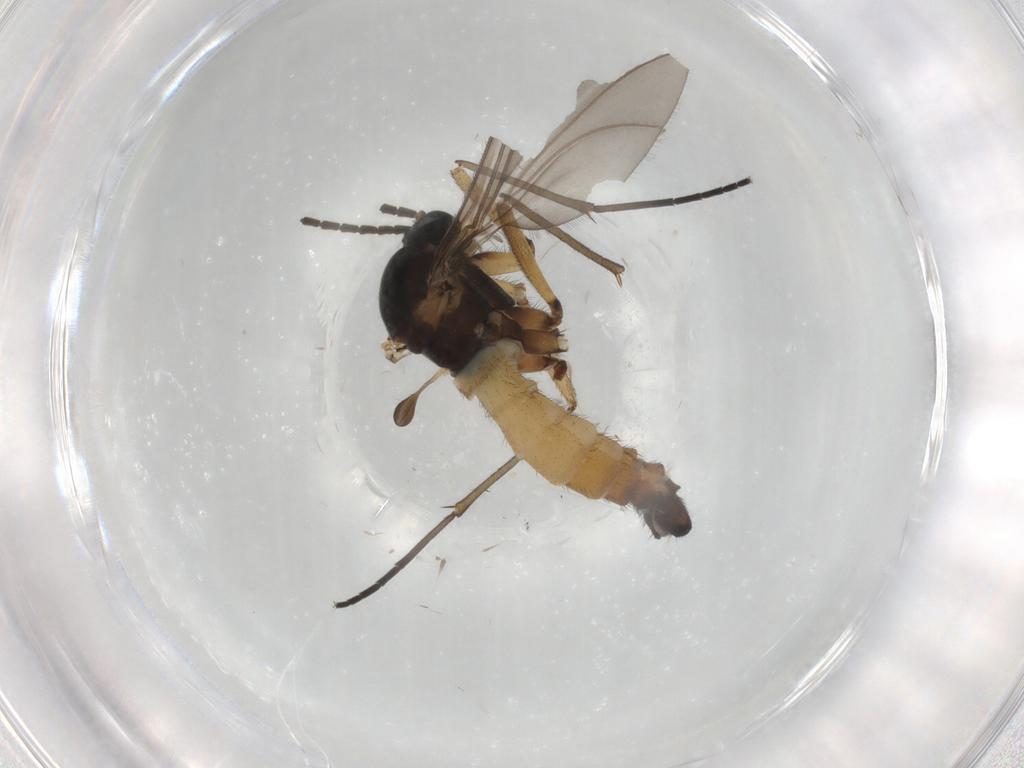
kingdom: Animalia
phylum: Arthropoda
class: Insecta
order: Diptera
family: Sciaridae
